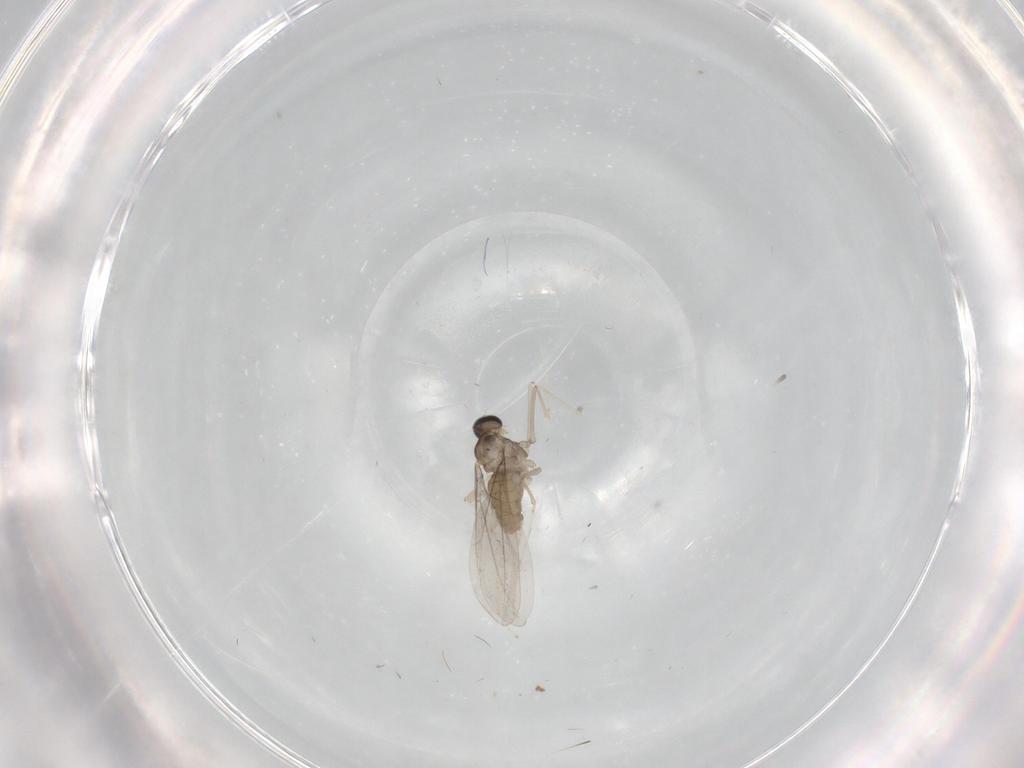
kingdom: Animalia
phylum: Arthropoda
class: Insecta
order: Diptera
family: Cecidomyiidae
